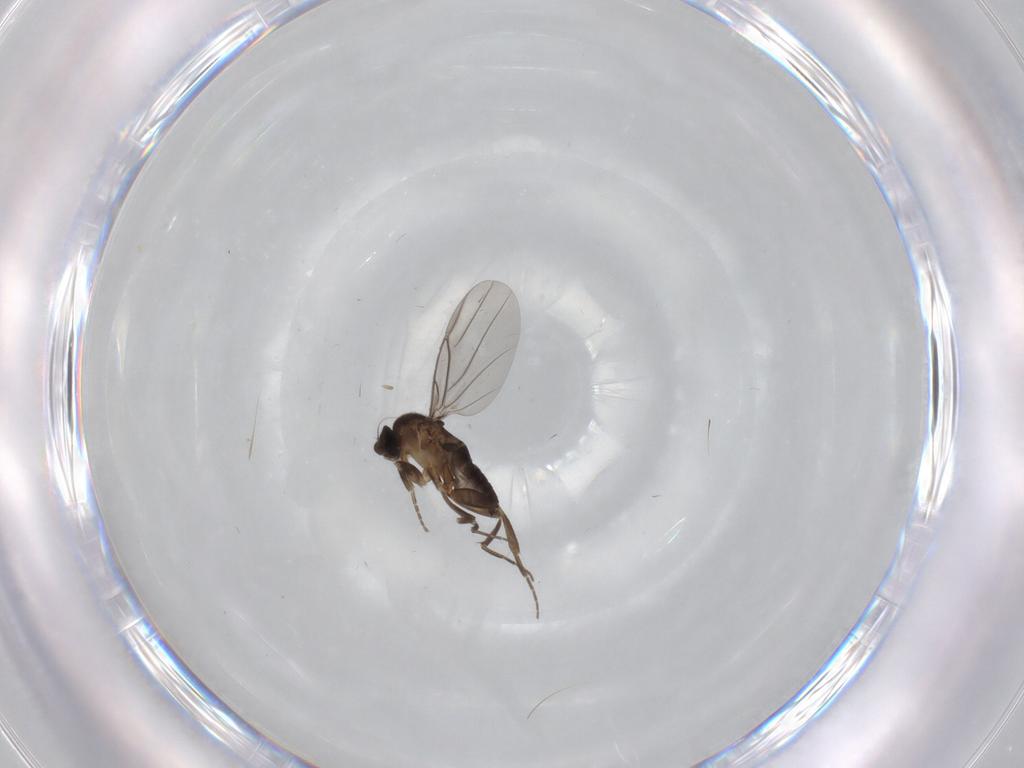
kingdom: Animalia
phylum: Arthropoda
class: Insecta
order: Diptera
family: Phoridae
